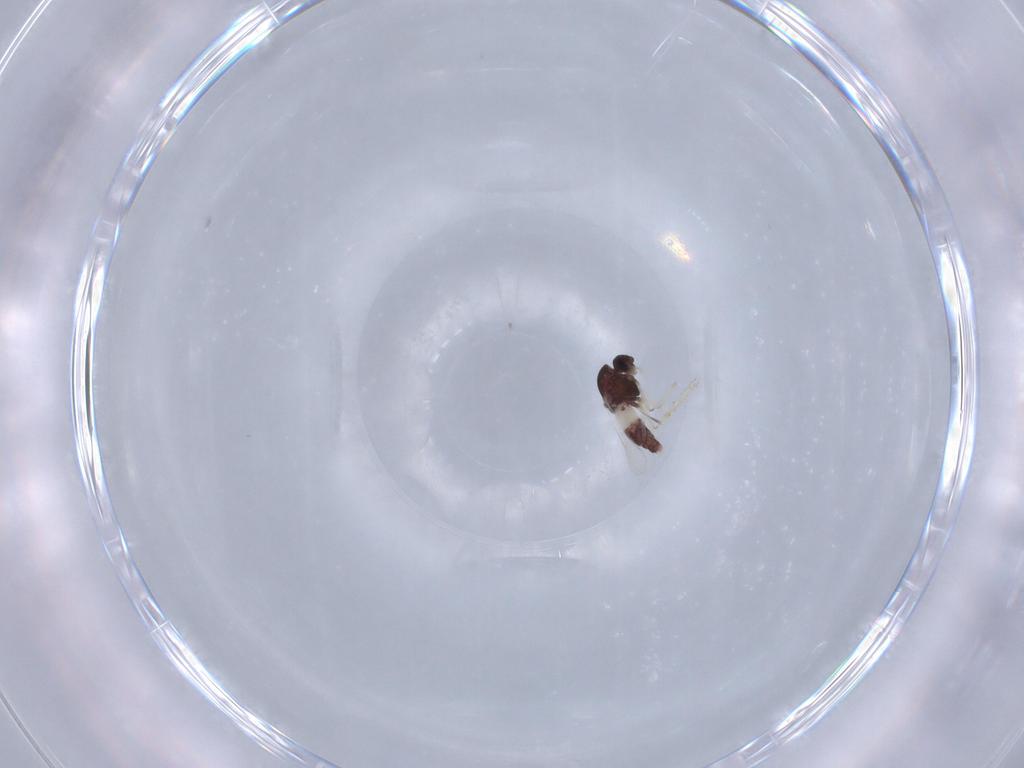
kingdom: Animalia
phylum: Arthropoda
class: Insecta
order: Diptera
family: Chironomidae
